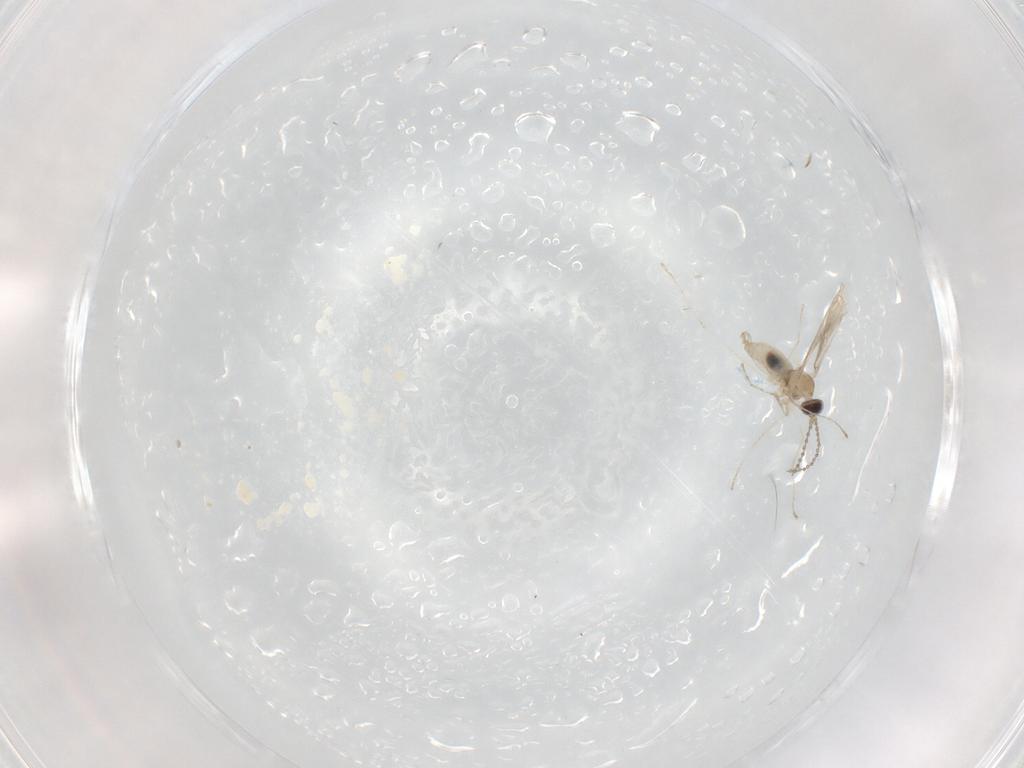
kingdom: Animalia
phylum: Arthropoda
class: Insecta
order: Diptera
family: Cecidomyiidae
